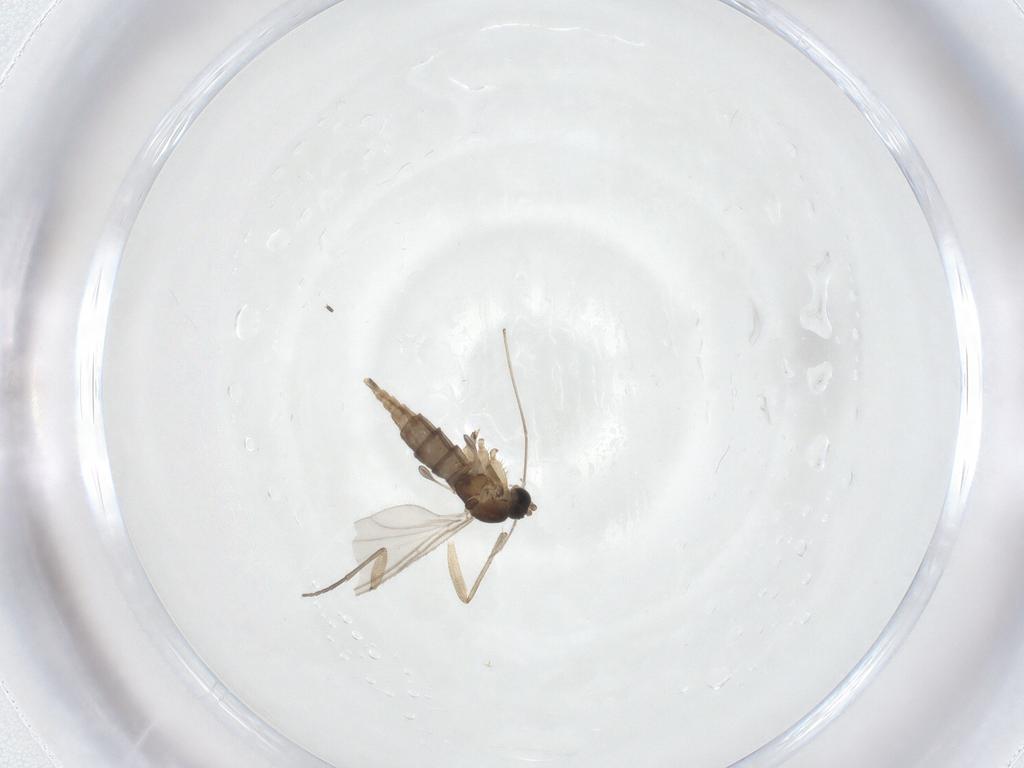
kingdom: Animalia
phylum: Arthropoda
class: Insecta
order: Diptera
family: Sciaridae
